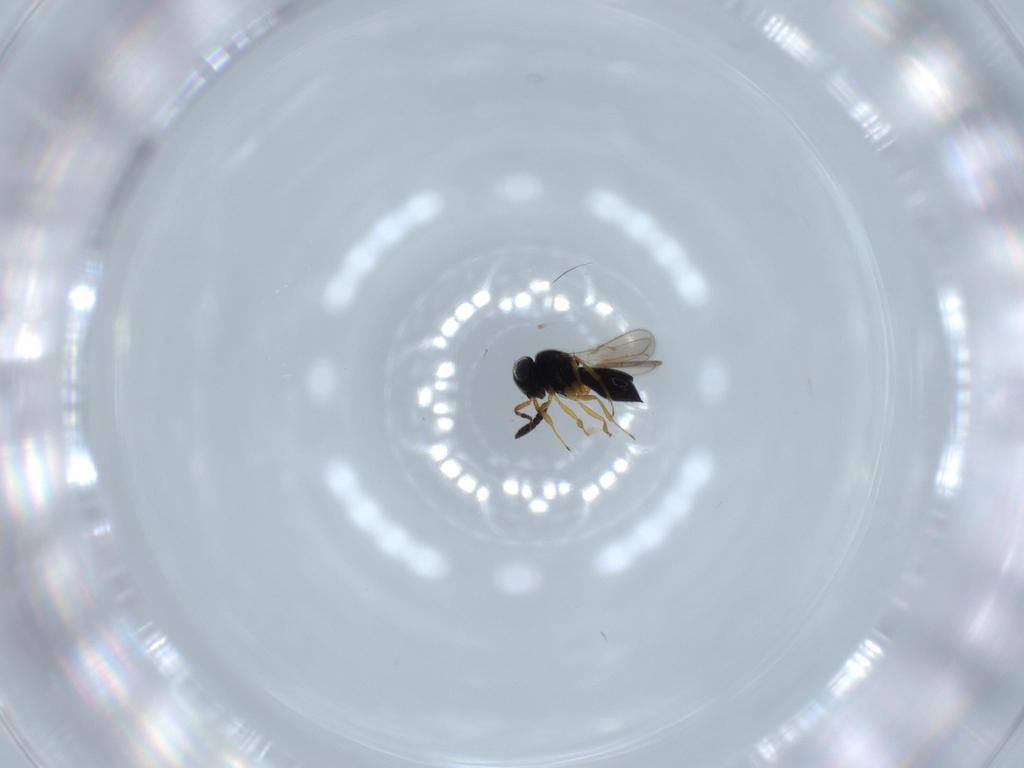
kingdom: Animalia
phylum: Arthropoda
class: Insecta
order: Hymenoptera
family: Scelionidae
